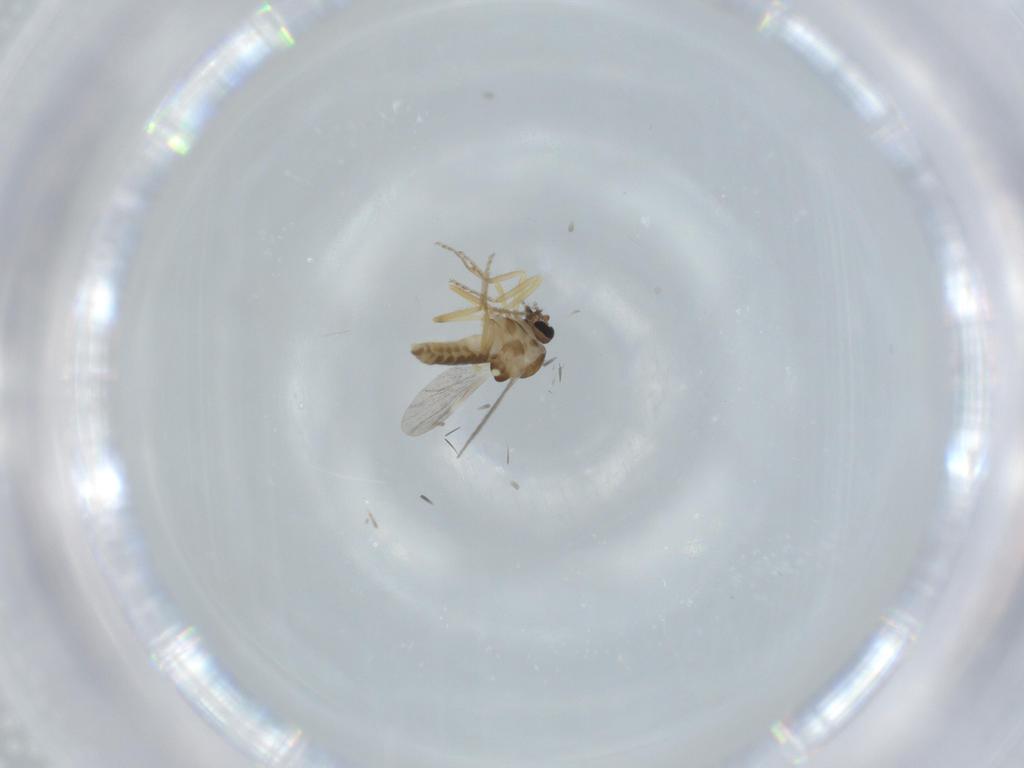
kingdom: Animalia
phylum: Arthropoda
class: Insecta
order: Diptera
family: Ceratopogonidae
